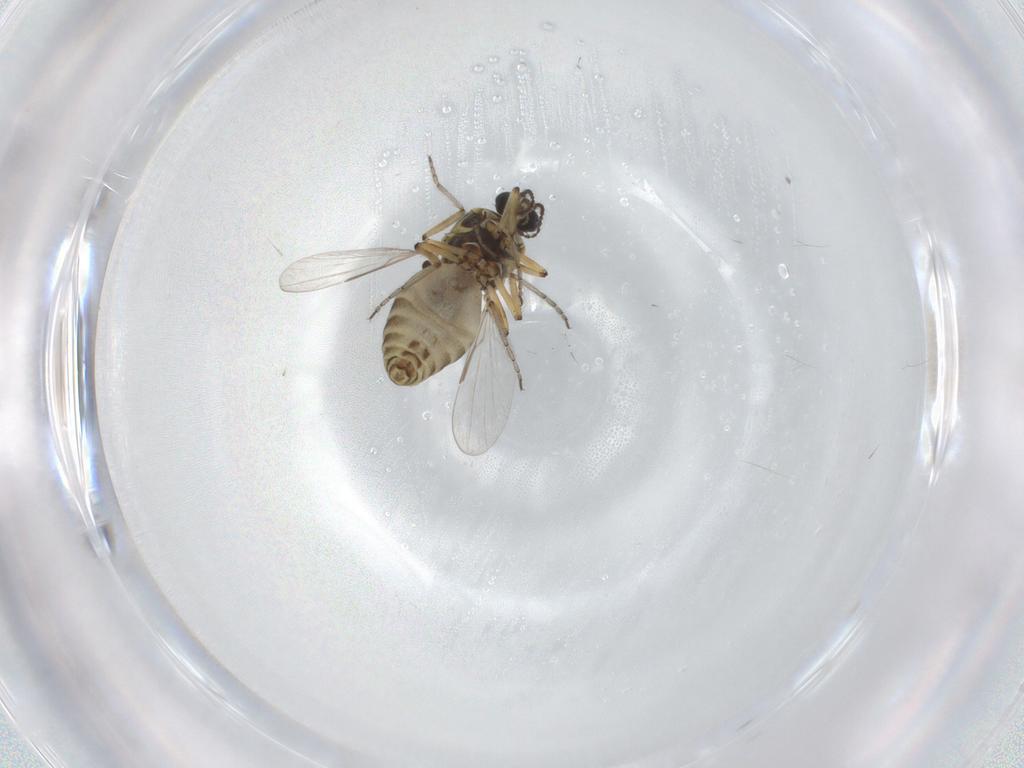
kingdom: Animalia
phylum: Arthropoda
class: Insecta
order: Diptera
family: Ceratopogonidae
